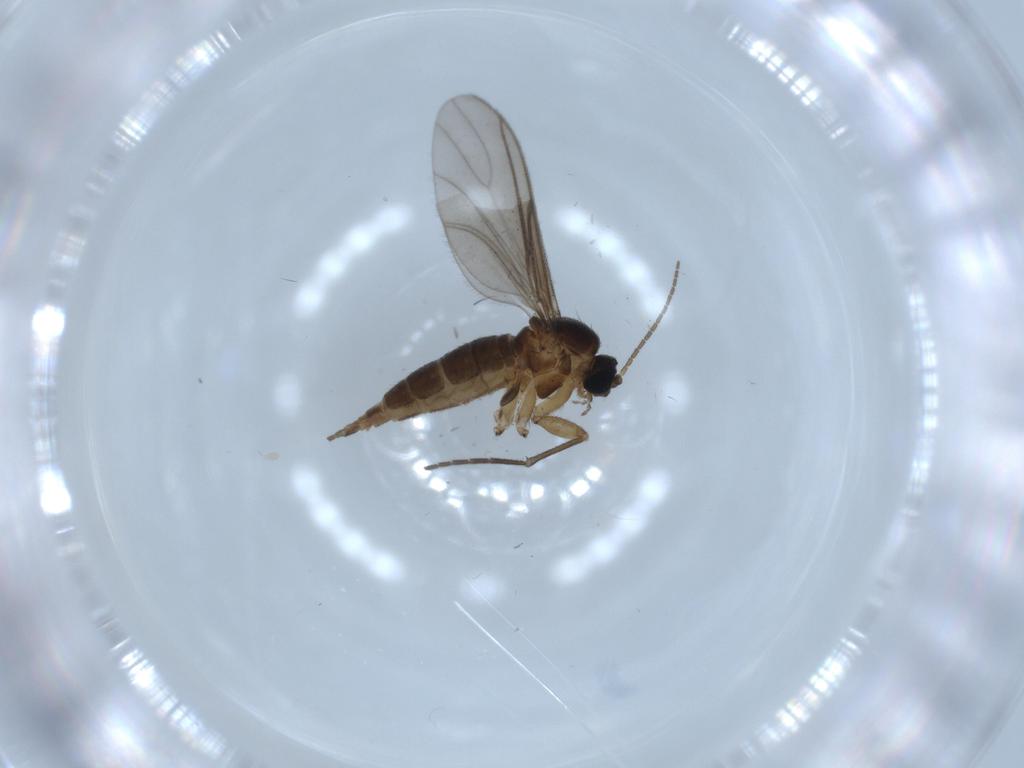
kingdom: Animalia
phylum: Arthropoda
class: Insecta
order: Diptera
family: Sciaridae
